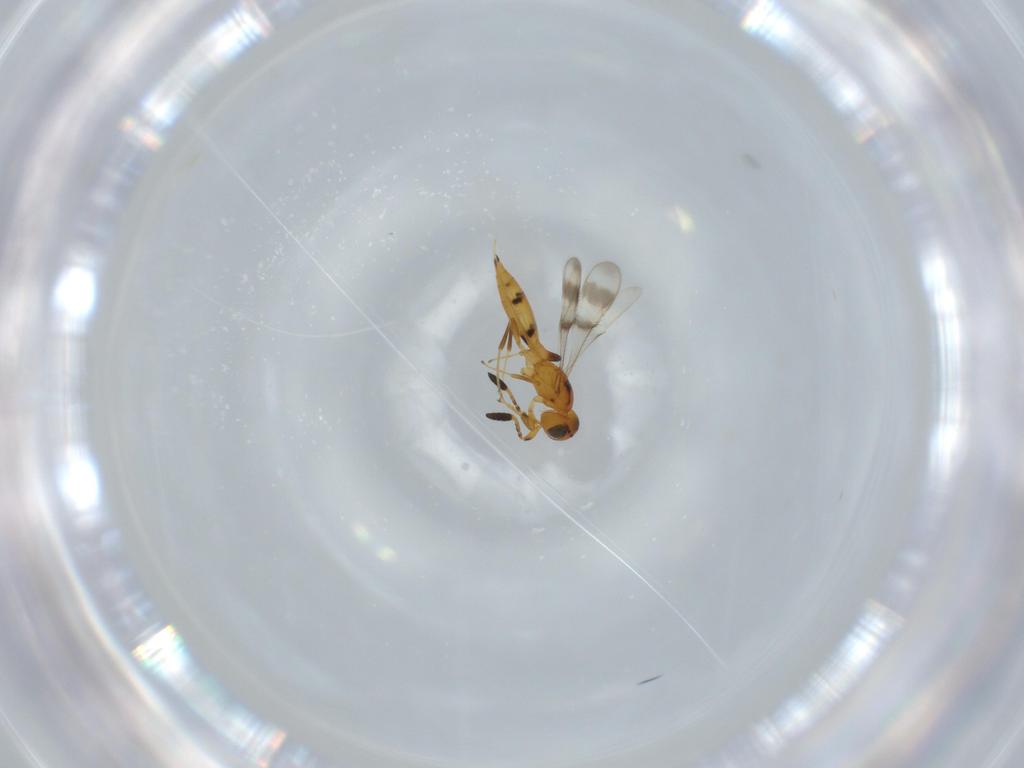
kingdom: Animalia
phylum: Arthropoda
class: Insecta
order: Hymenoptera
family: Scelionidae
